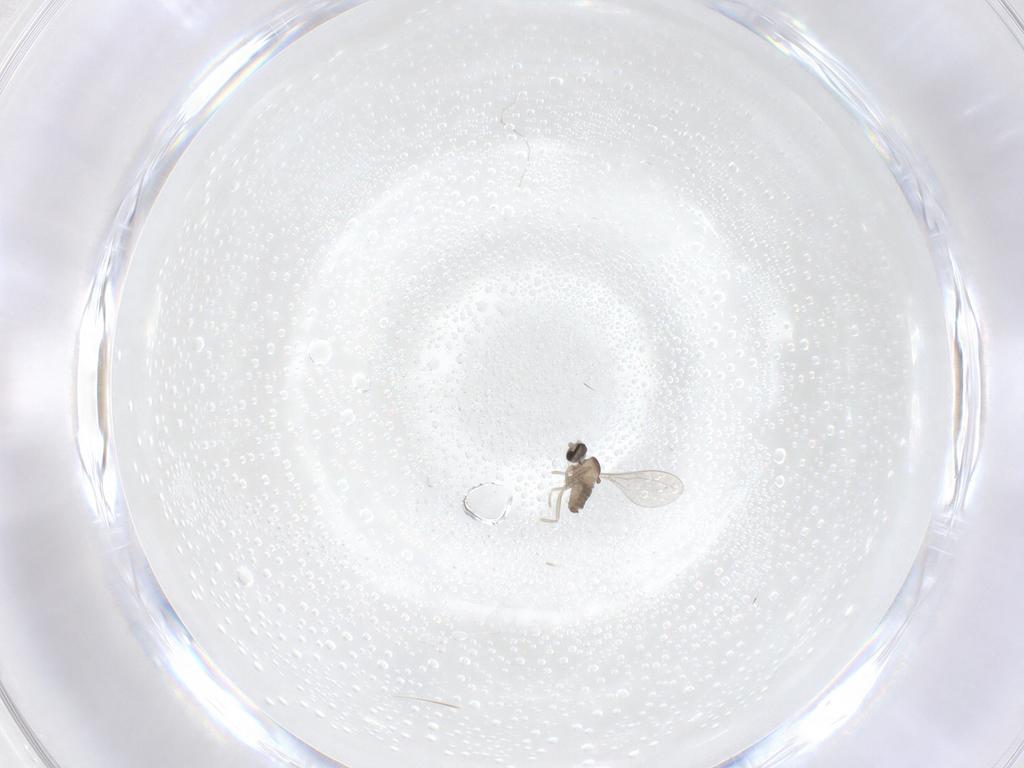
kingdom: Animalia
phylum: Arthropoda
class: Insecta
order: Diptera
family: Cecidomyiidae
